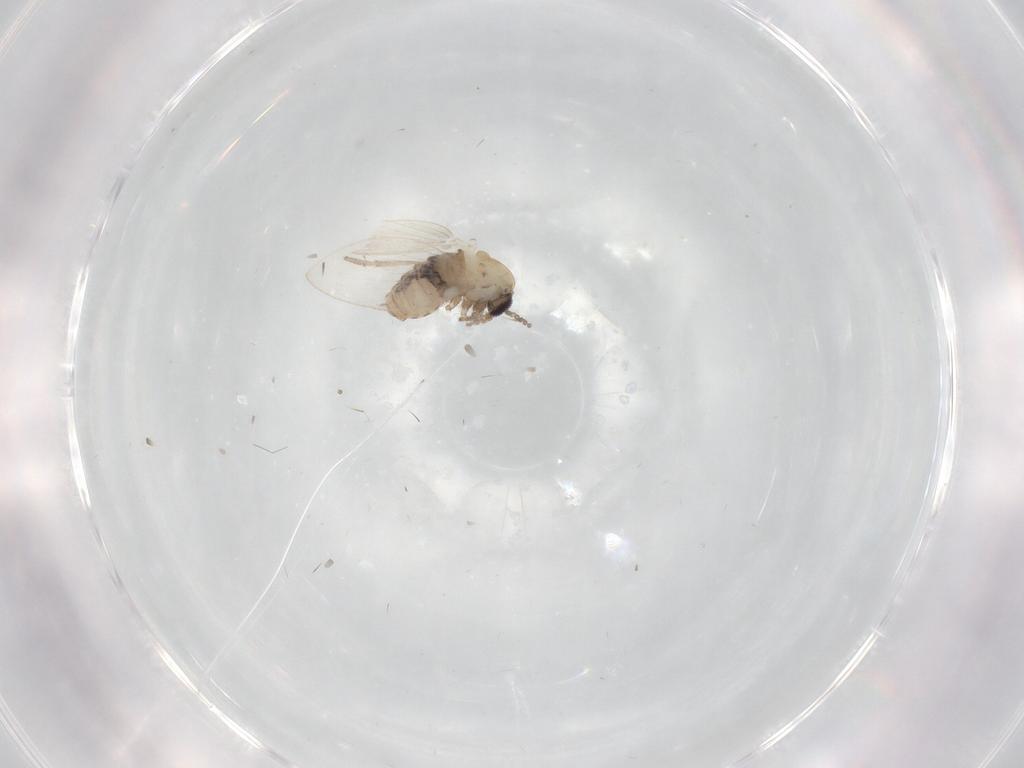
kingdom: Animalia
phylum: Arthropoda
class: Insecta
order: Diptera
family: Psychodidae
